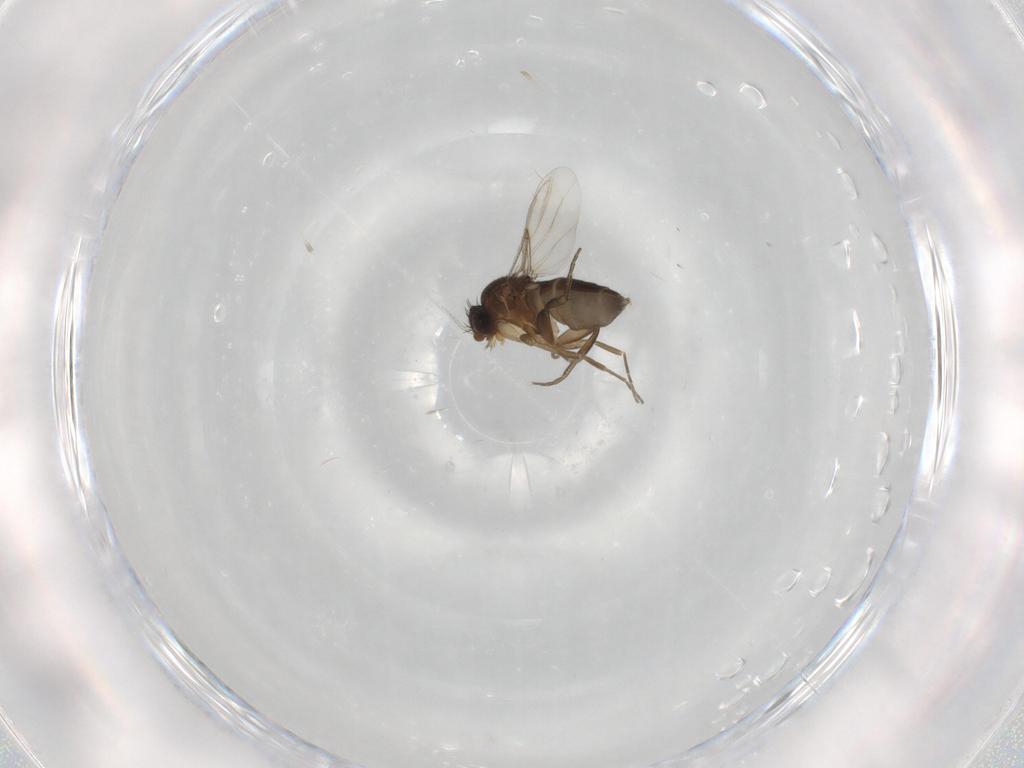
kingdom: Animalia
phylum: Arthropoda
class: Insecta
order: Diptera
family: Phoridae
